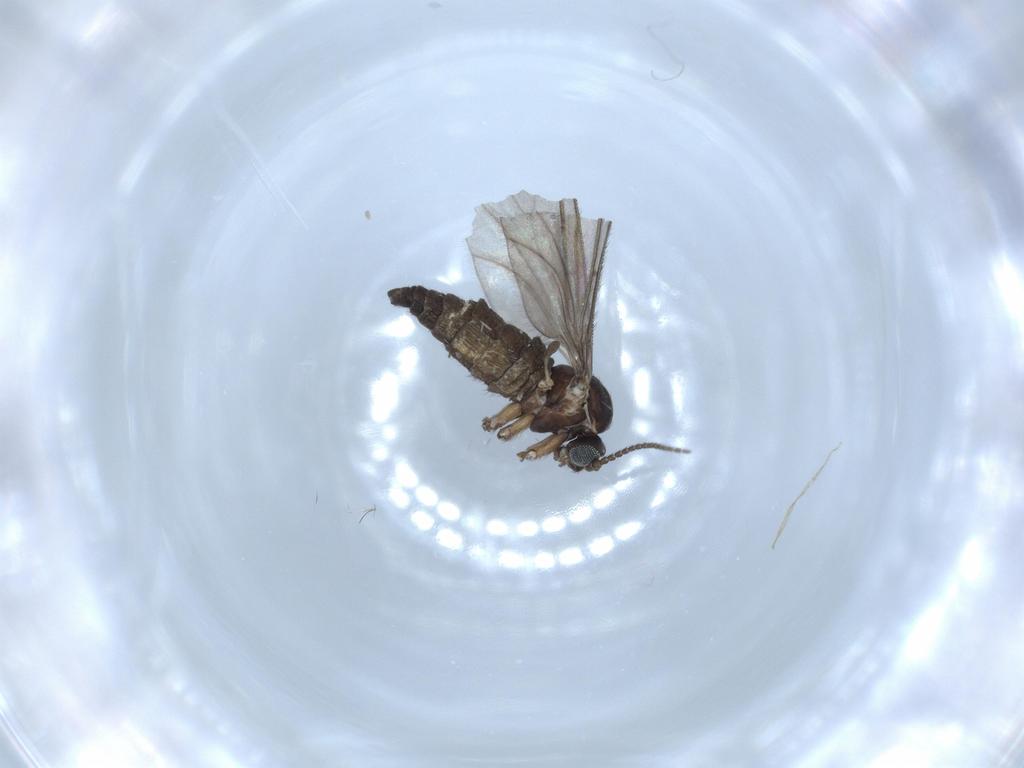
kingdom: Animalia
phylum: Arthropoda
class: Insecta
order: Diptera
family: Sciaridae
